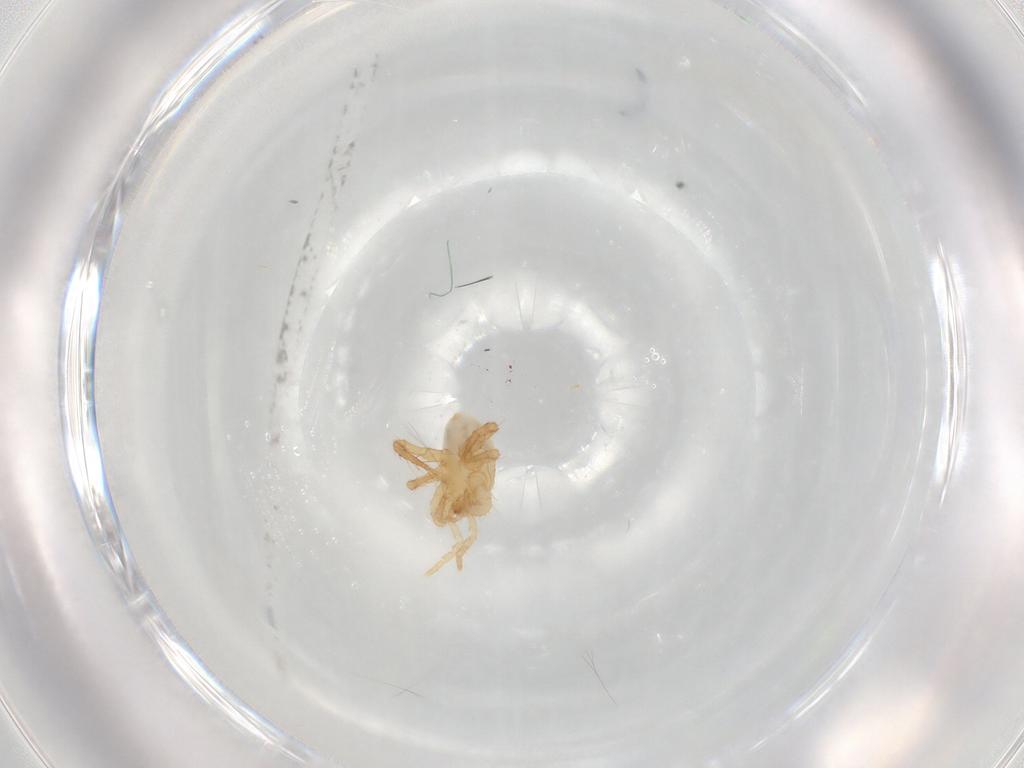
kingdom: Animalia
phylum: Arthropoda
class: Arachnida
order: Mesostigmata
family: Parasitidae
